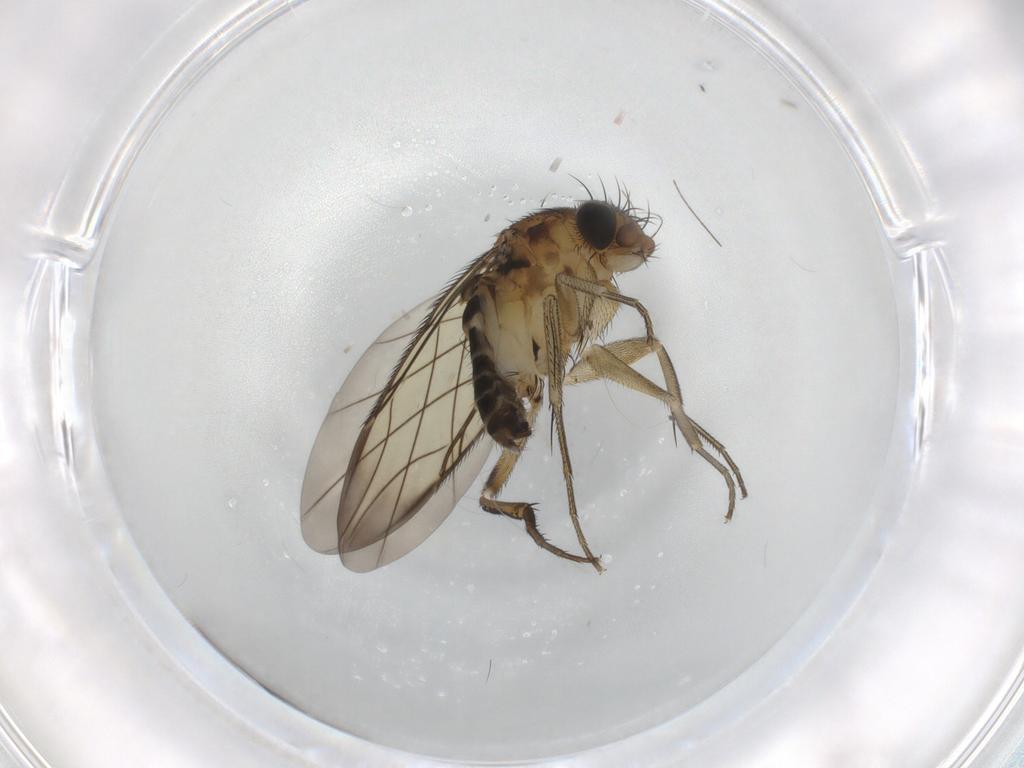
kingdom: Animalia
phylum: Arthropoda
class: Insecta
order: Diptera
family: Phoridae
